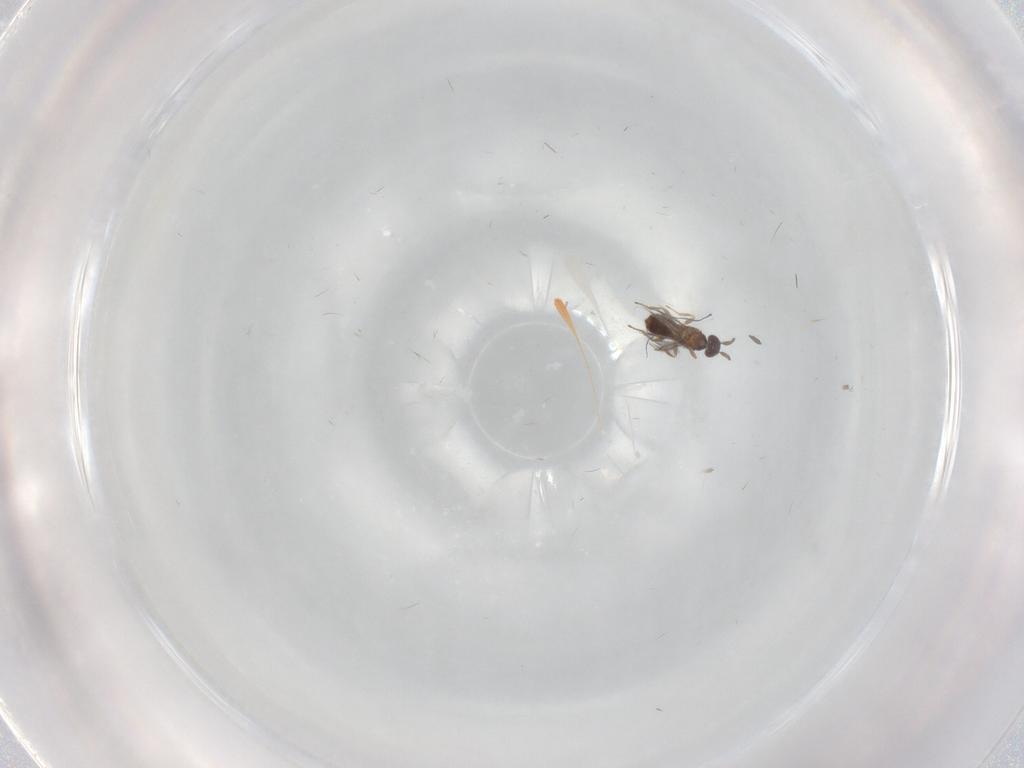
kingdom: Animalia
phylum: Arthropoda
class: Insecta
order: Diptera
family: Culicidae
